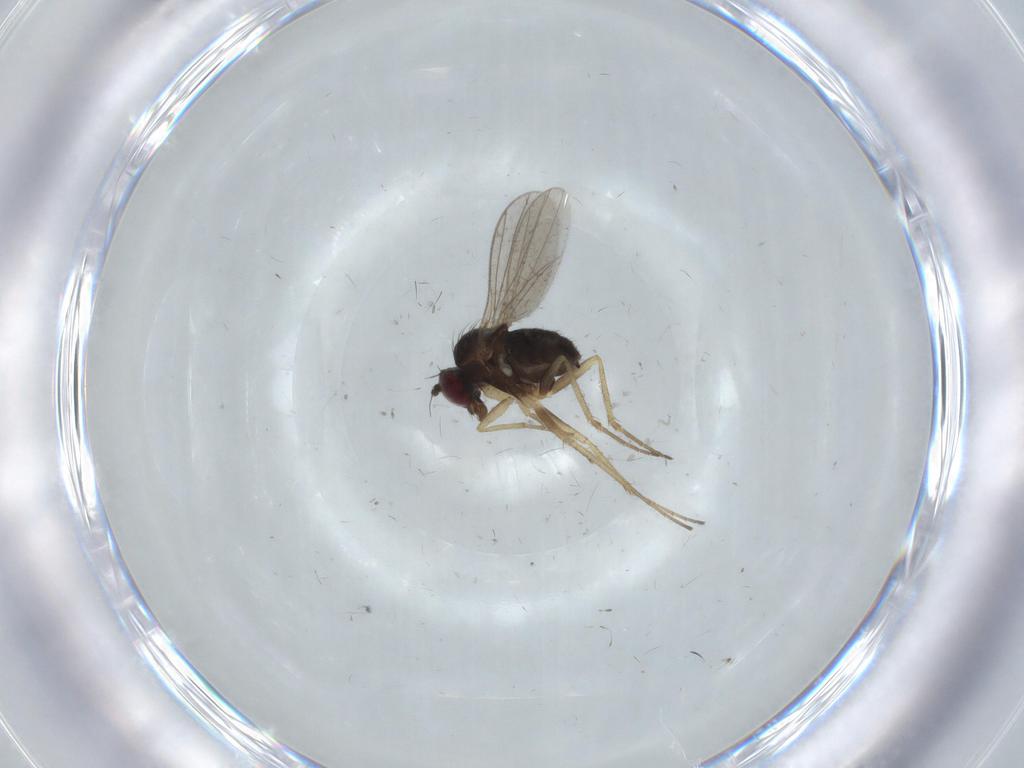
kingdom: Animalia
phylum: Arthropoda
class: Insecta
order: Diptera
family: Dolichopodidae
